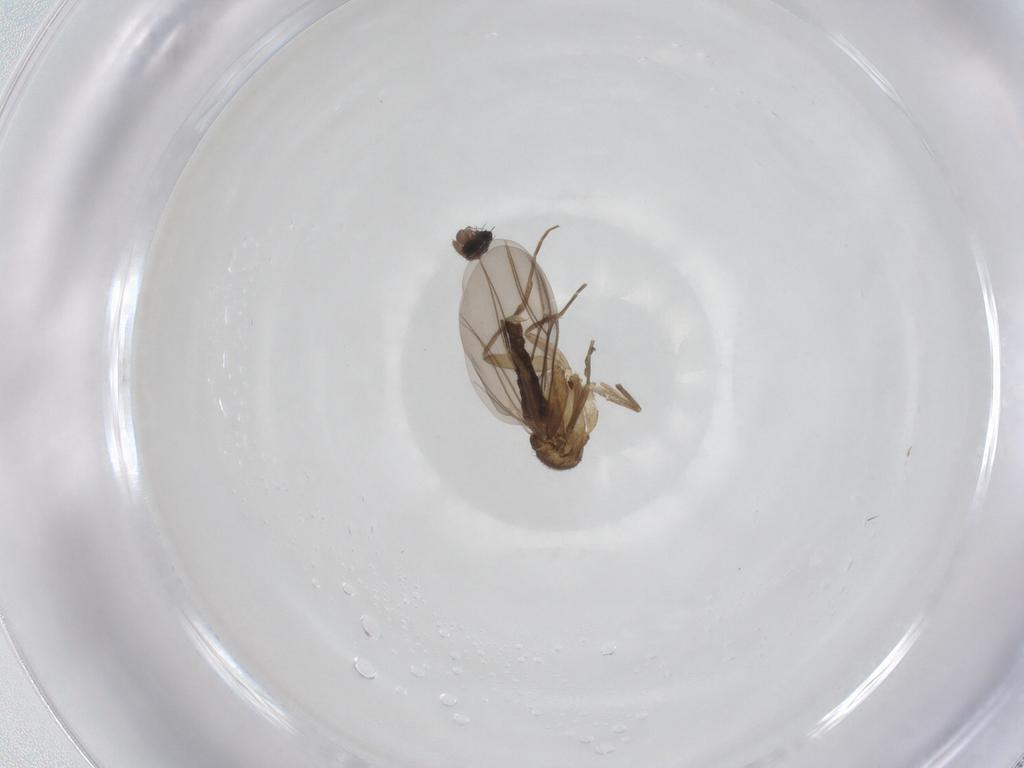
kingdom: Animalia
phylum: Arthropoda
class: Insecta
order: Diptera
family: Phoridae
